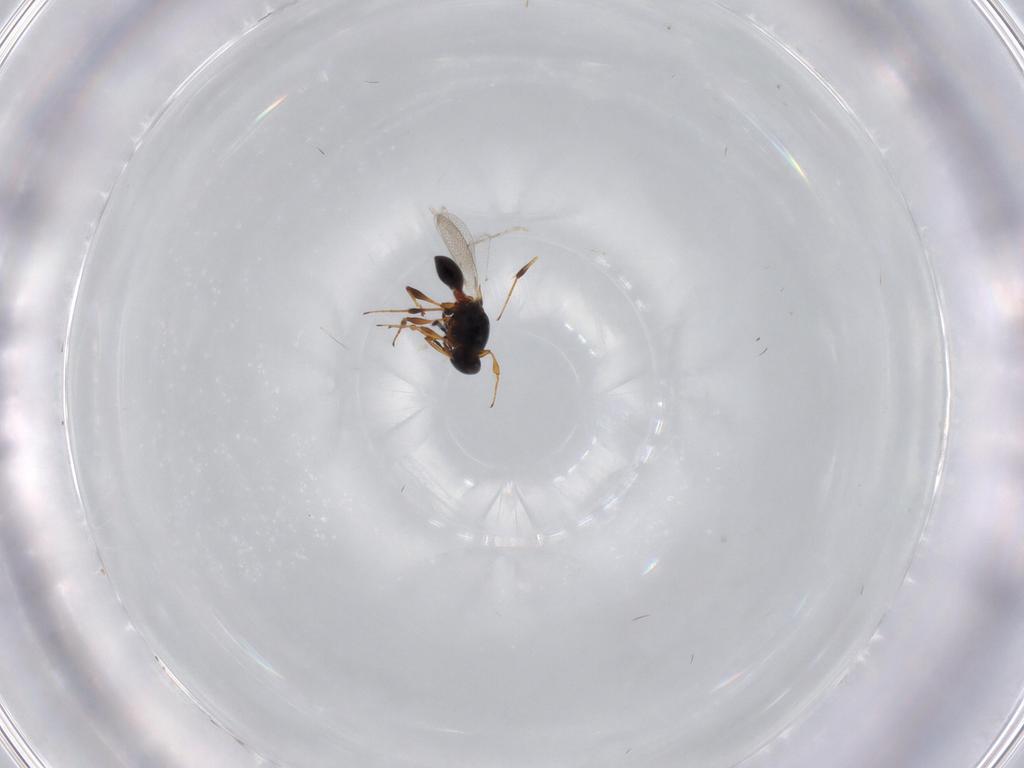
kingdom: Animalia
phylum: Arthropoda
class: Insecta
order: Hymenoptera
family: Platygastridae
